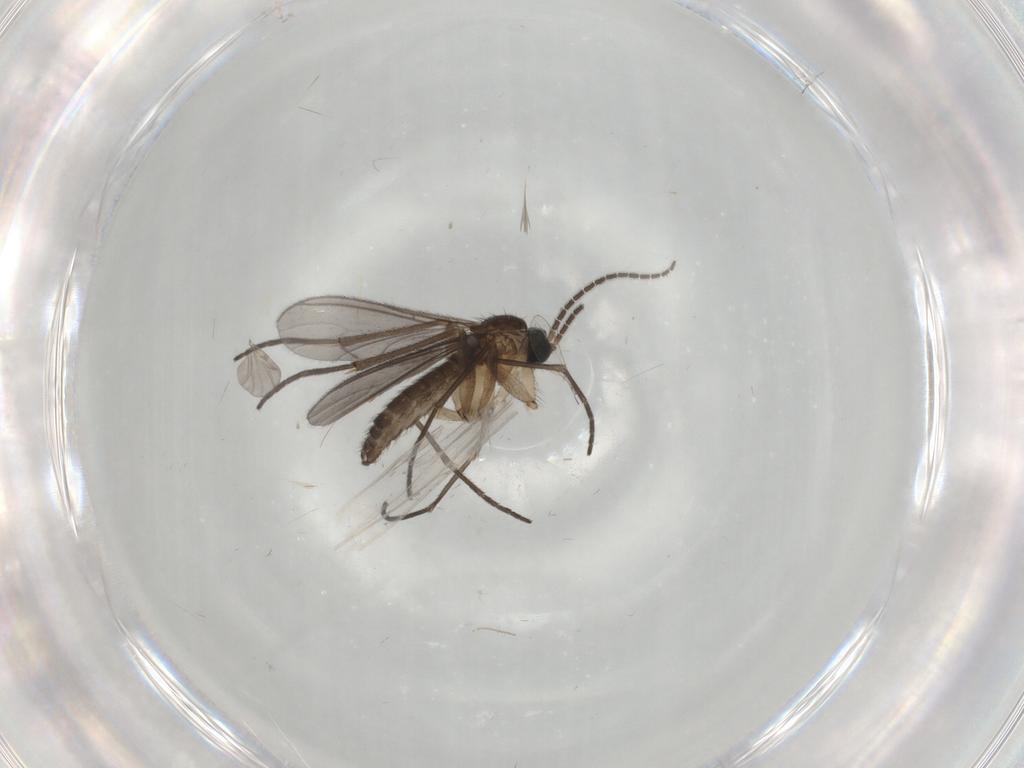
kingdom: Animalia
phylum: Arthropoda
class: Insecta
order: Diptera
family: Sciaridae
